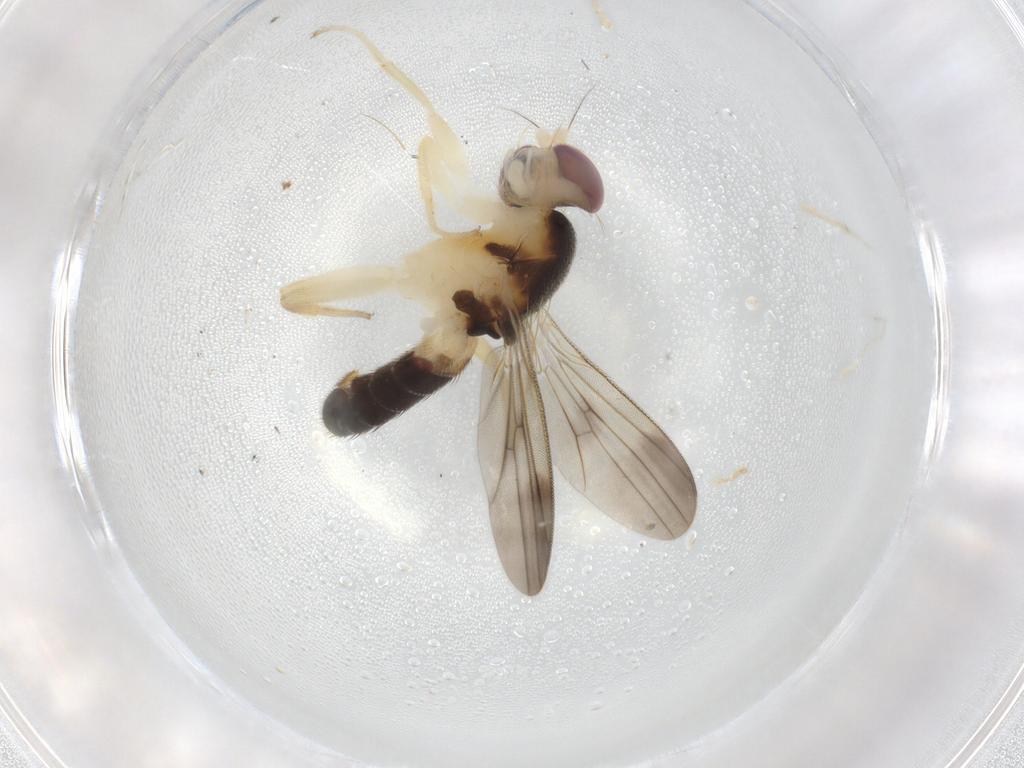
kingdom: Animalia
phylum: Arthropoda
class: Insecta
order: Diptera
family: Clusiidae
